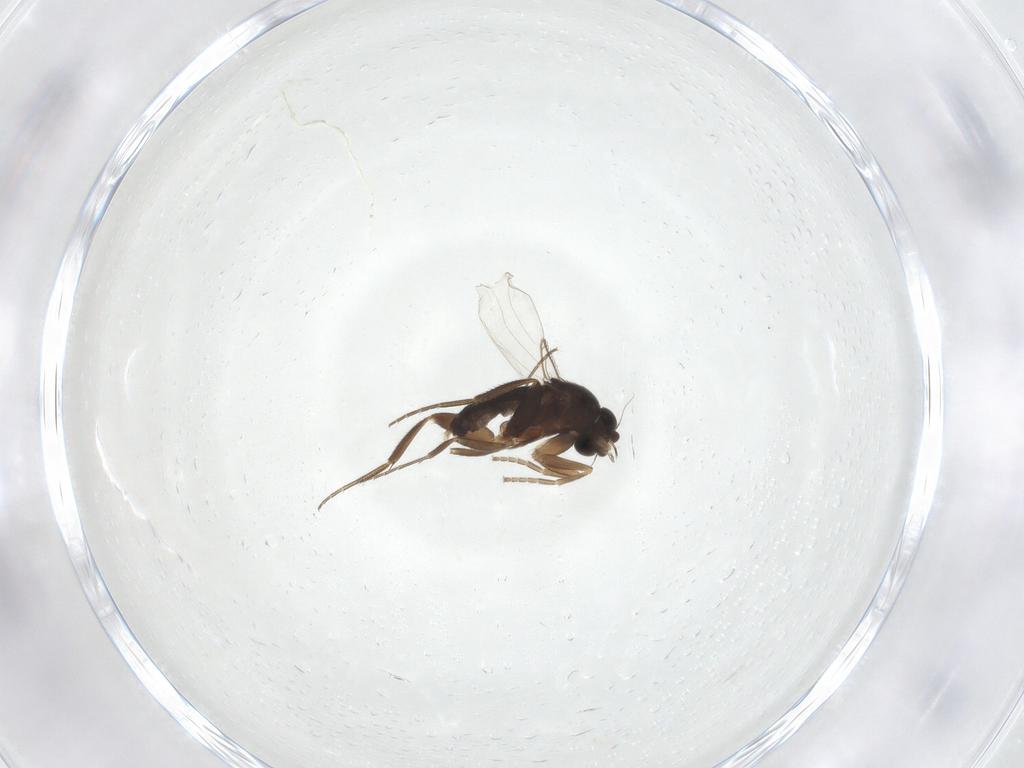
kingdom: Animalia
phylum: Arthropoda
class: Insecta
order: Diptera
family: Phoridae
